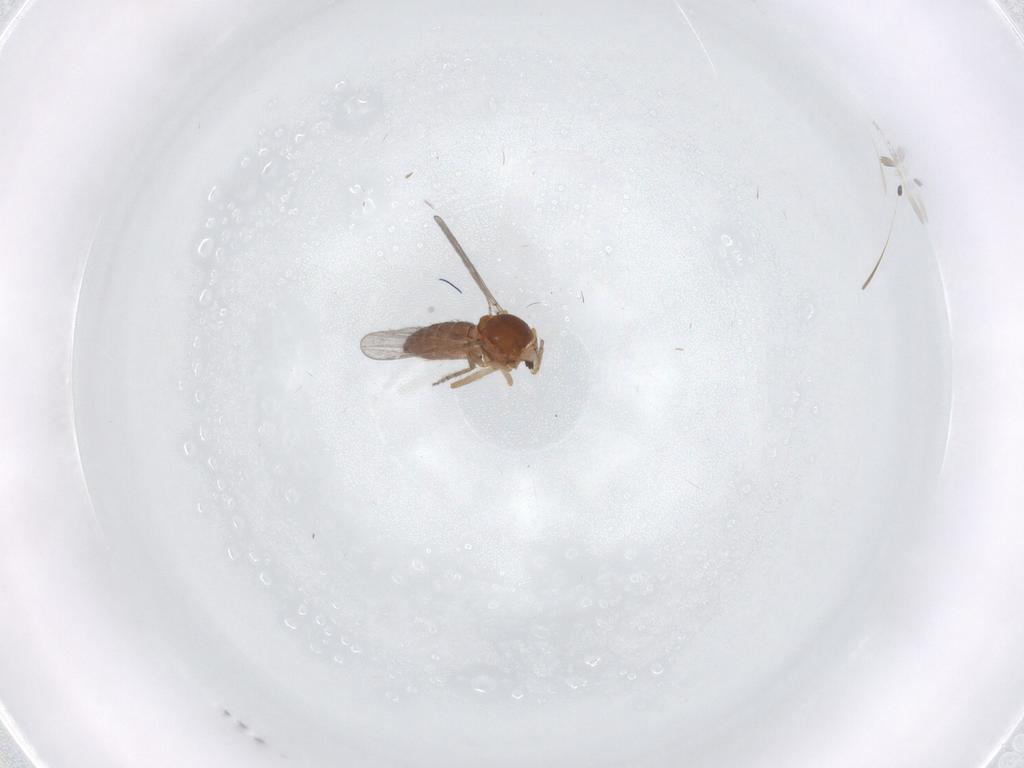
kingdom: Animalia
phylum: Arthropoda
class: Insecta
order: Diptera
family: Ceratopogonidae
